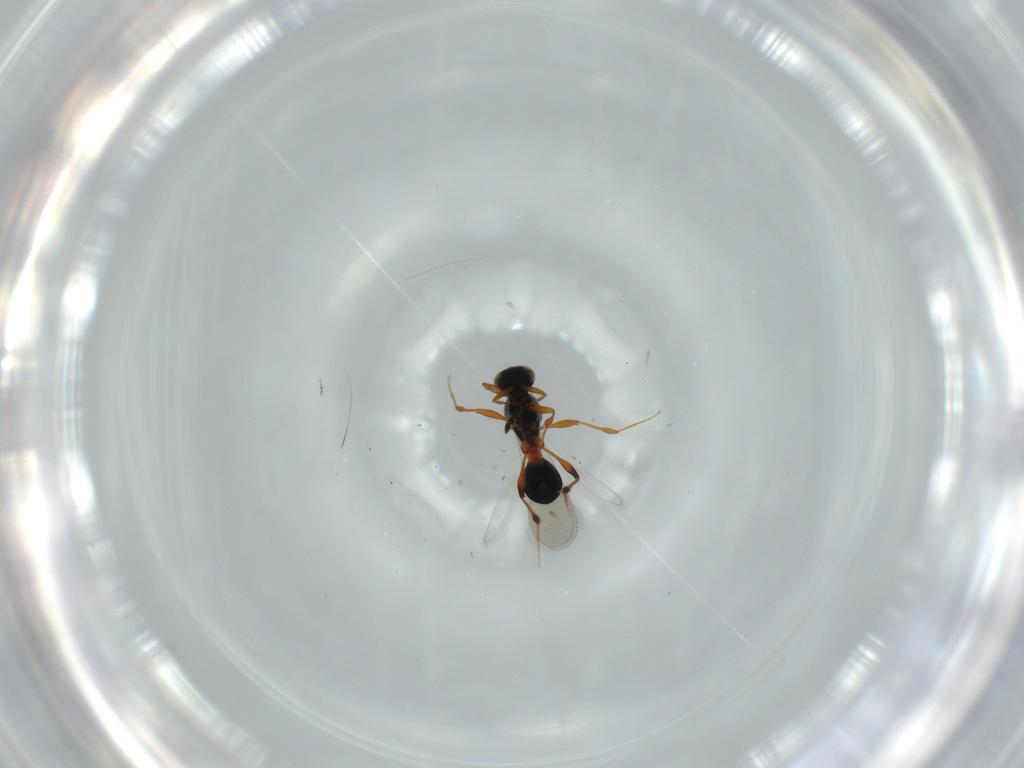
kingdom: Animalia
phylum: Arthropoda
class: Insecta
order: Hymenoptera
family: Platygastridae
